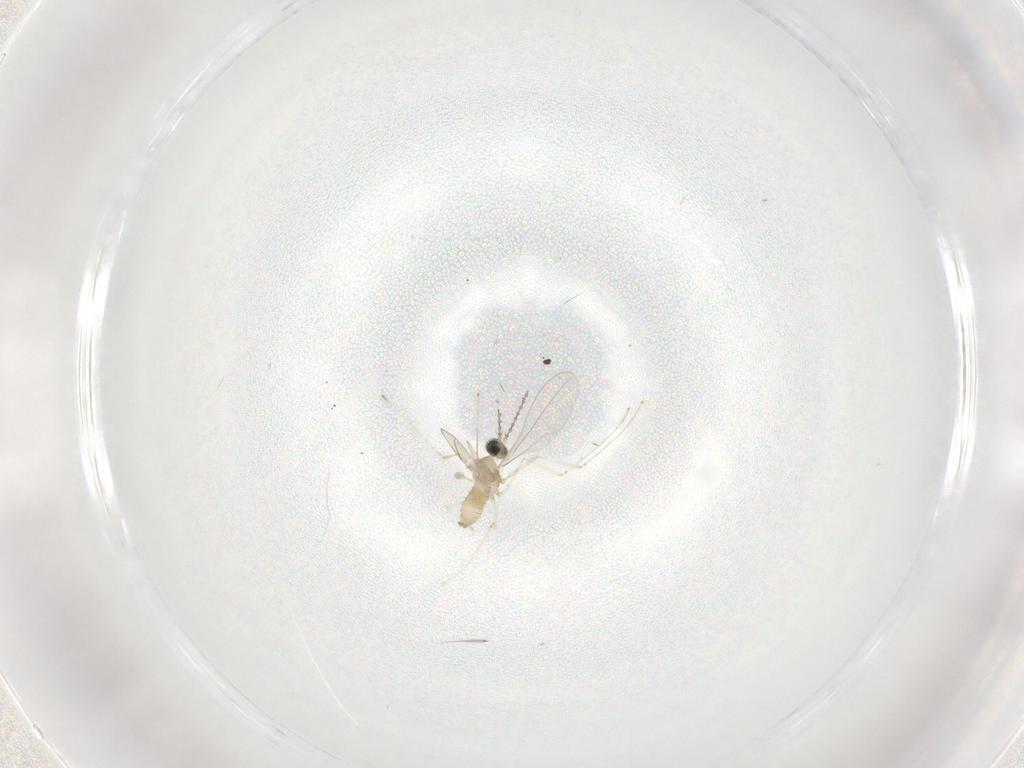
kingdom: Animalia
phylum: Arthropoda
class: Insecta
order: Diptera
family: Cecidomyiidae
